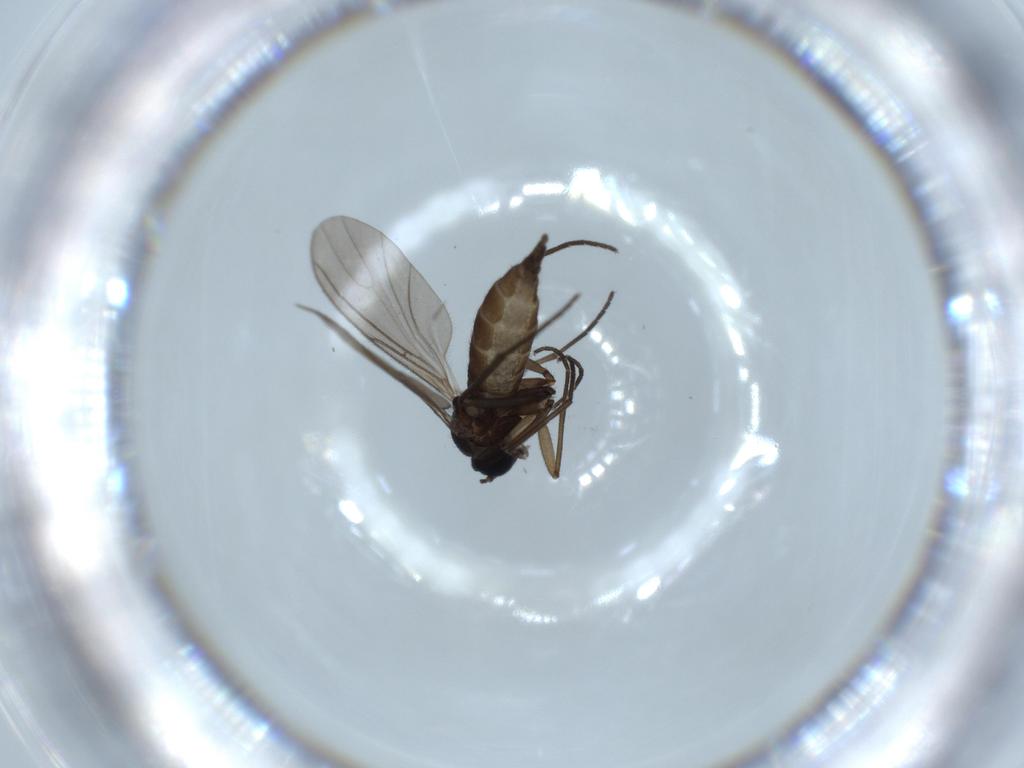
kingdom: Animalia
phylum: Arthropoda
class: Insecta
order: Diptera
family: Sciaridae
